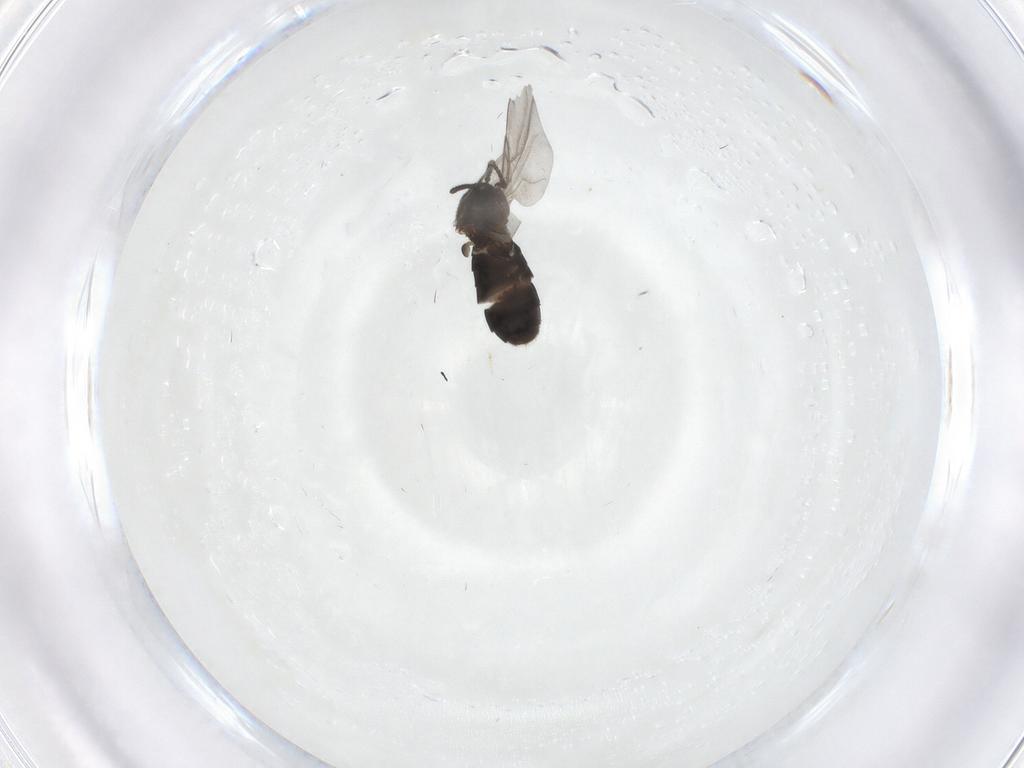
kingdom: Animalia
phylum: Arthropoda
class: Insecta
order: Diptera
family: Scatopsidae
